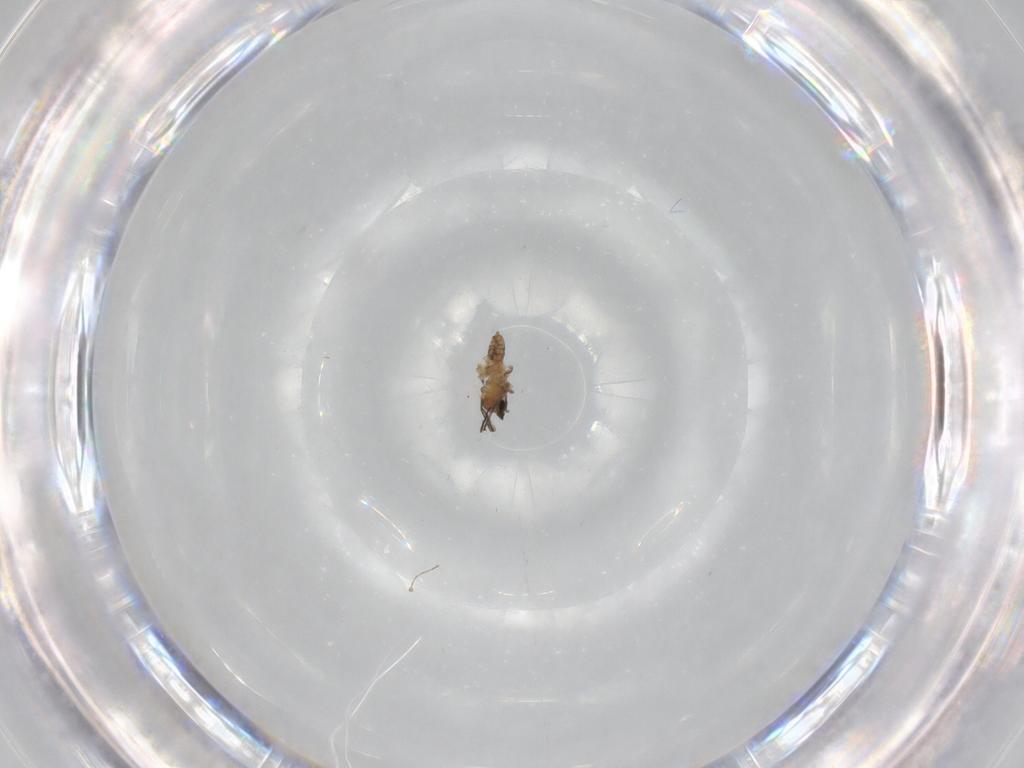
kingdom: Animalia
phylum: Arthropoda
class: Insecta
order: Diptera
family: Cecidomyiidae
